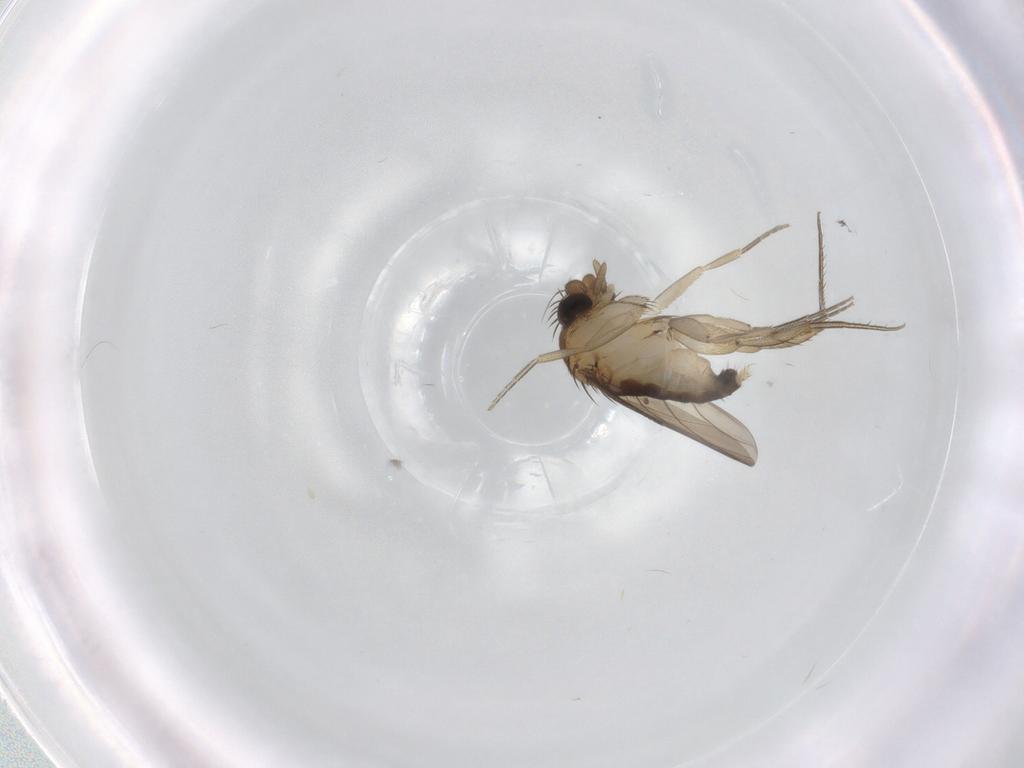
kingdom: Animalia
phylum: Arthropoda
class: Insecta
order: Diptera
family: Phoridae
